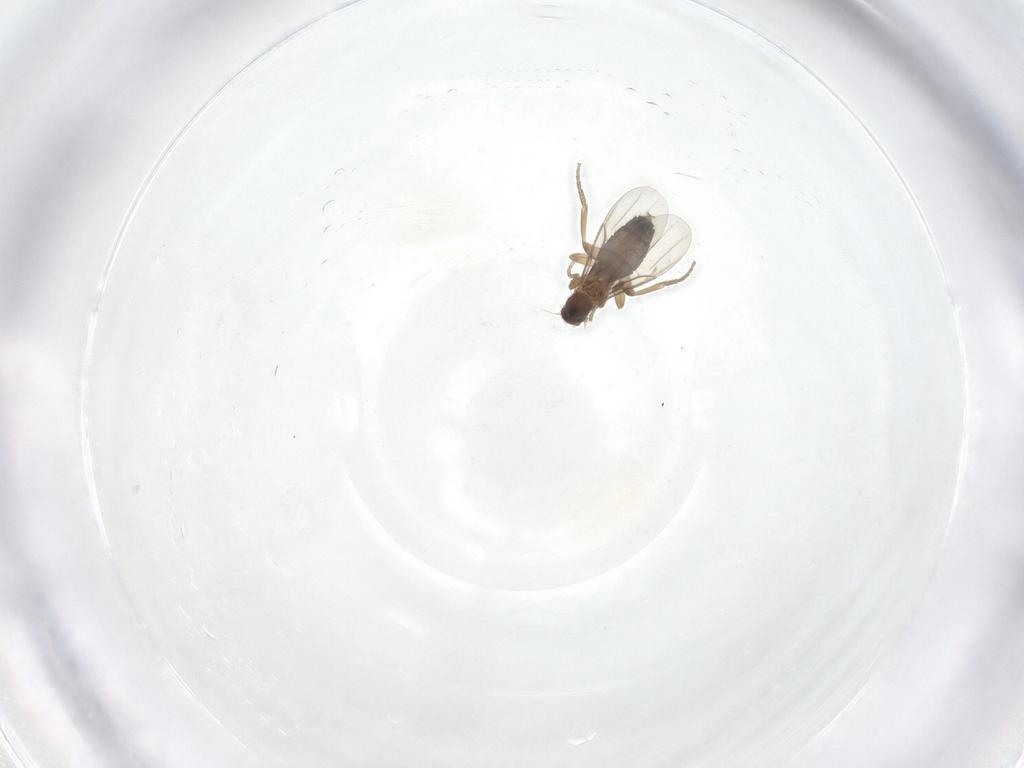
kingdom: Animalia
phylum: Arthropoda
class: Insecta
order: Diptera
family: Phoridae
